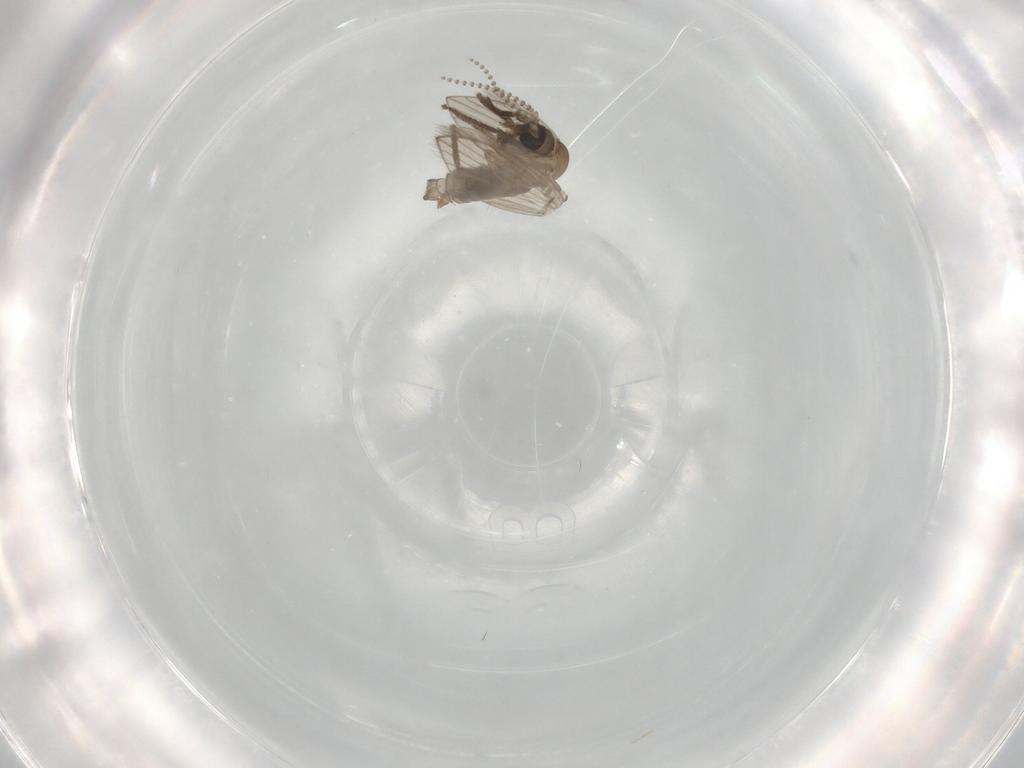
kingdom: Animalia
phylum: Arthropoda
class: Insecta
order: Diptera
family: Psychodidae
